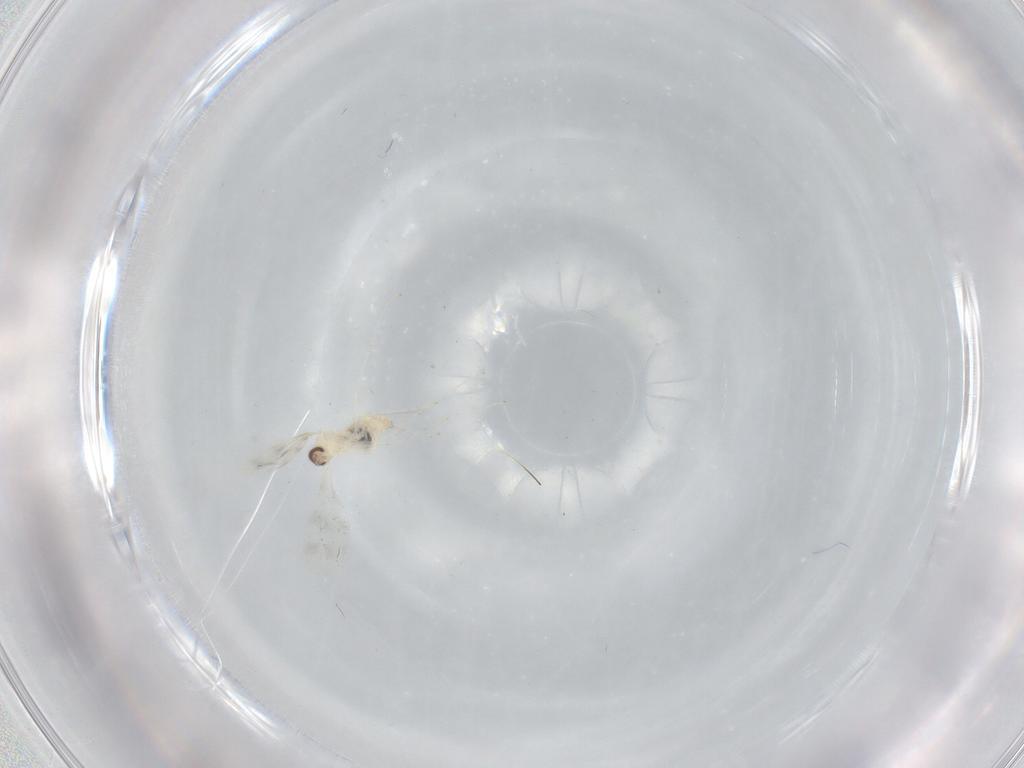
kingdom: Animalia
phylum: Arthropoda
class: Insecta
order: Diptera
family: Cecidomyiidae
